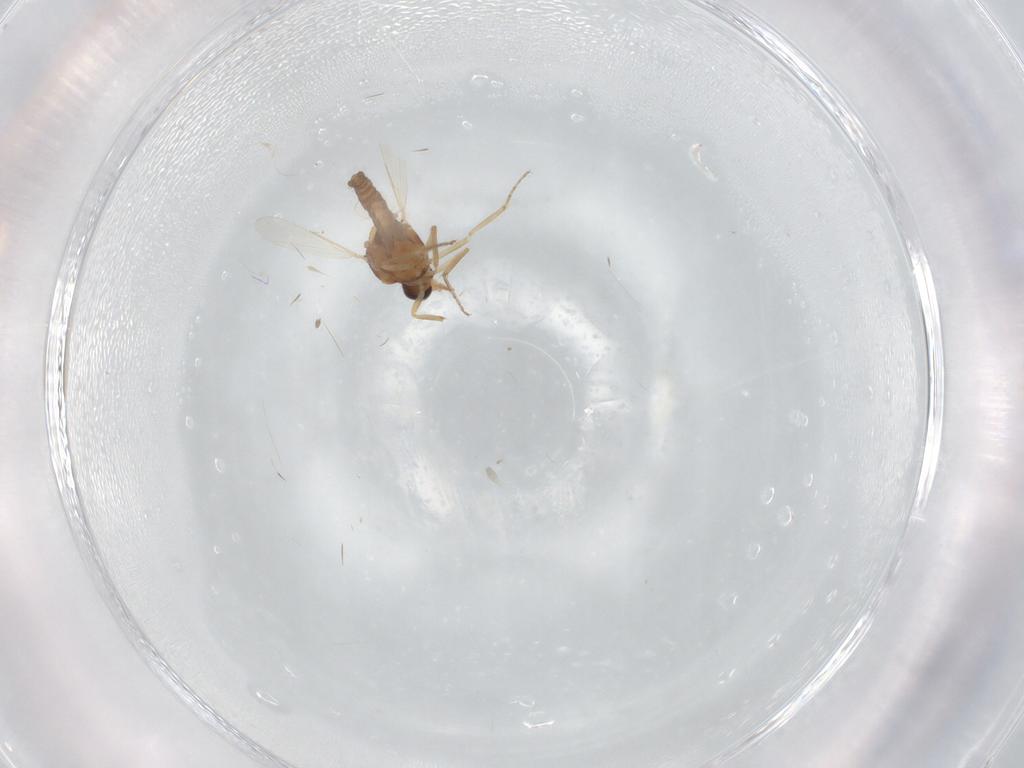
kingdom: Animalia
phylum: Arthropoda
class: Insecta
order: Diptera
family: Ceratopogonidae
